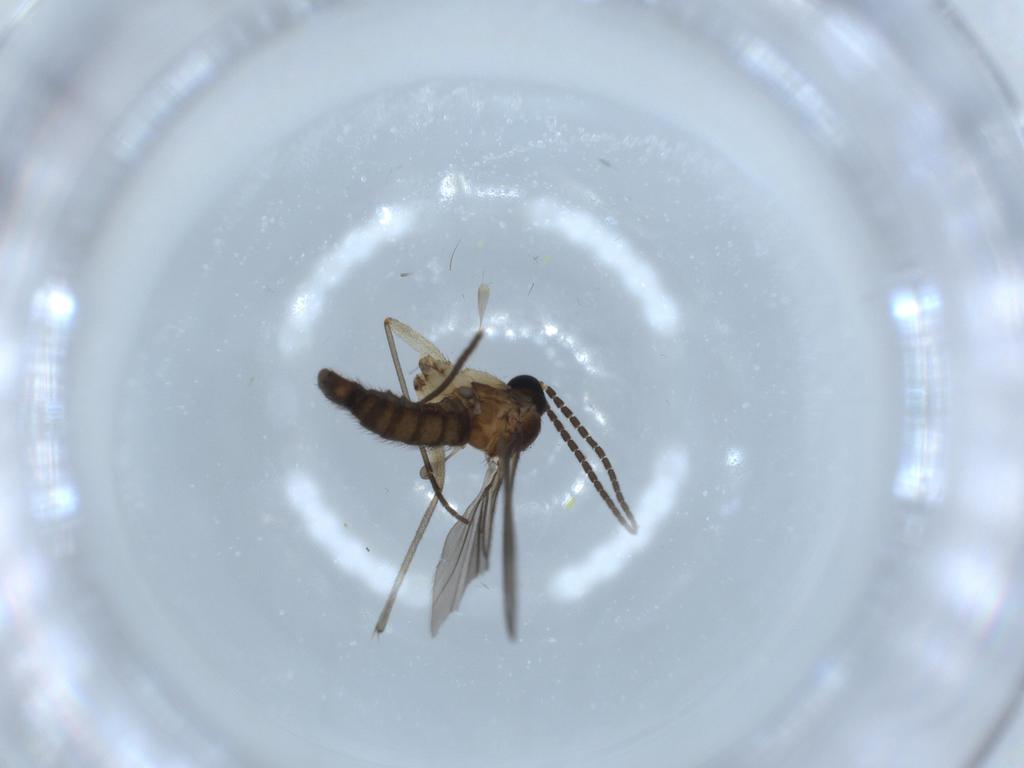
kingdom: Animalia
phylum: Arthropoda
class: Insecta
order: Diptera
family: Sciaridae
